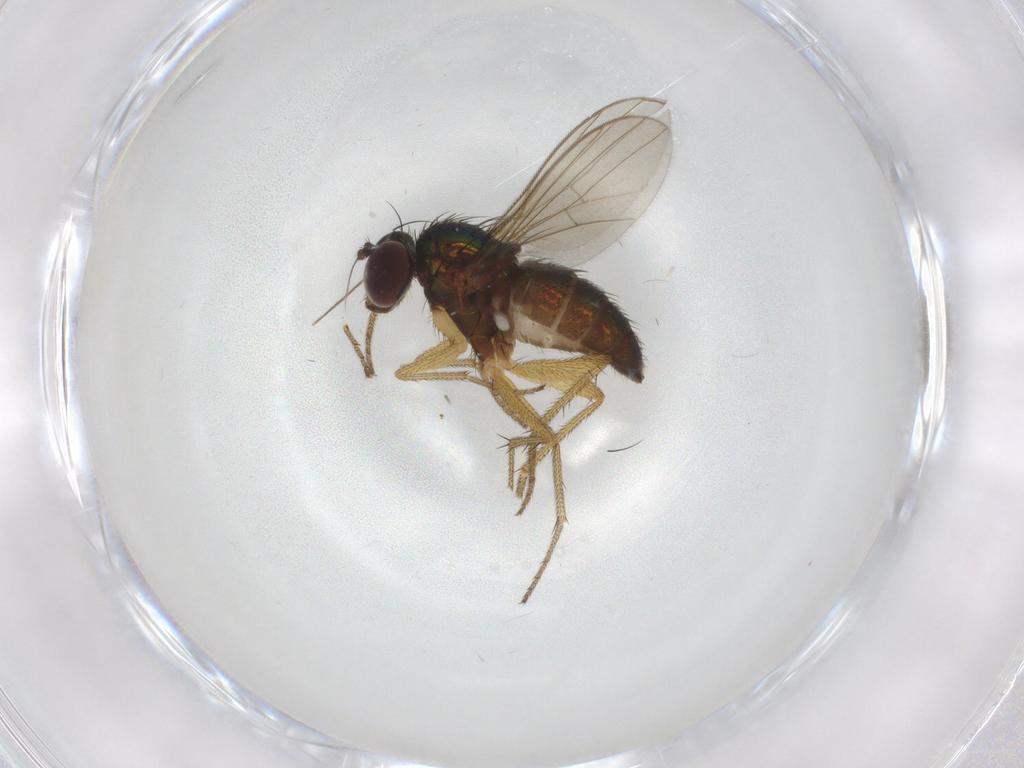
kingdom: Animalia
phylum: Arthropoda
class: Insecta
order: Diptera
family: Dolichopodidae
